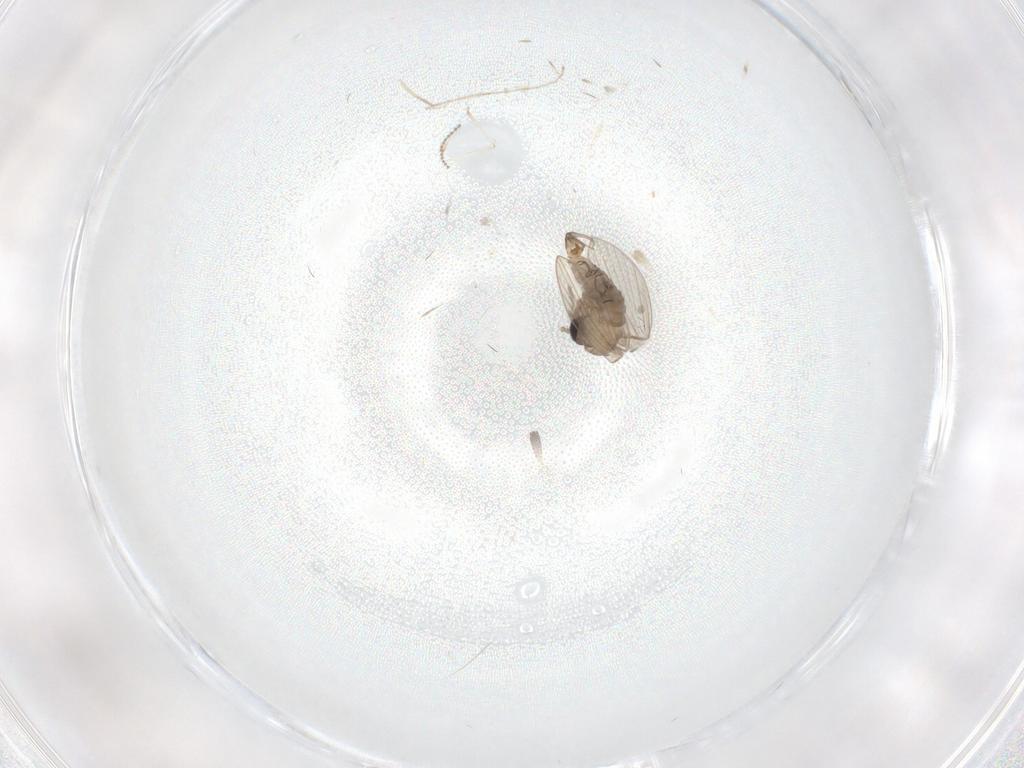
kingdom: Animalia
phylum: Arthropoda
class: Insecta
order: Diptera
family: Psychodidae
